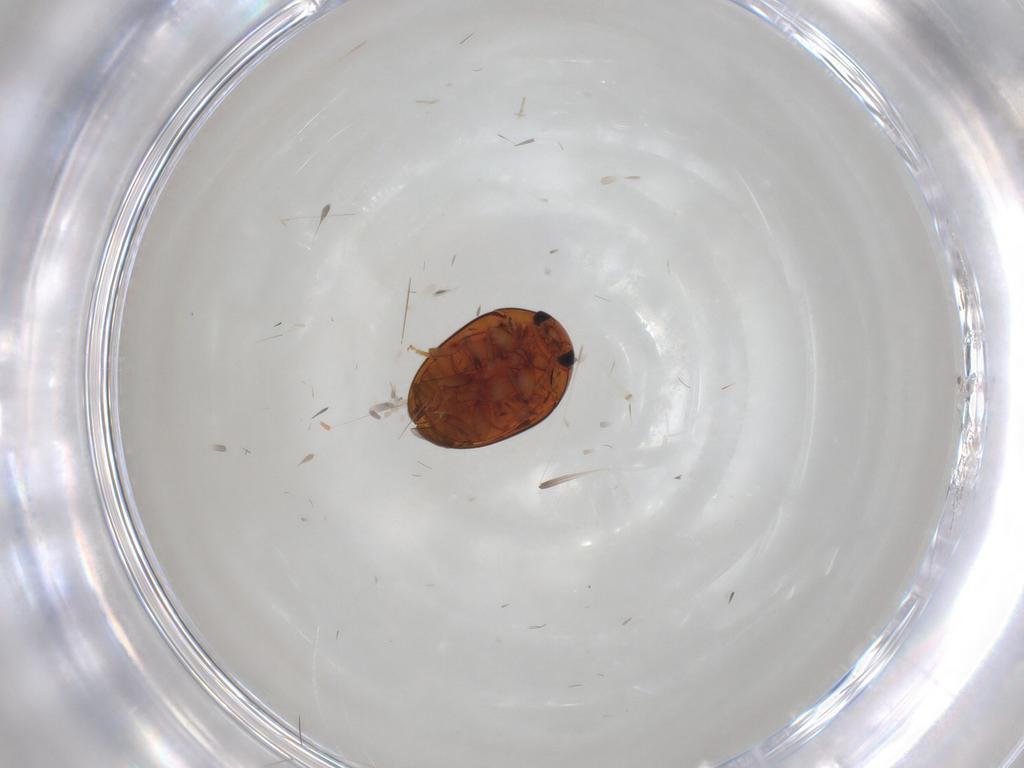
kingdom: Animalia
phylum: Arthropoda
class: Insecta
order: Coleoptera
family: Phalacridae
